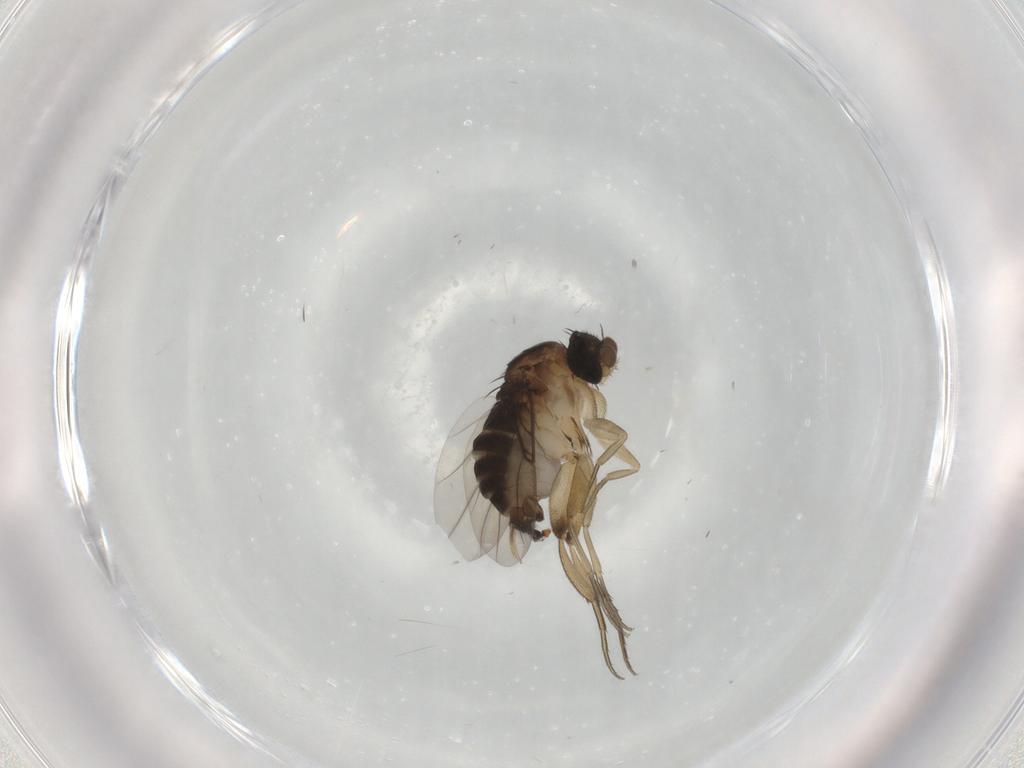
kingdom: Animalia
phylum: Arthropoda
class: Insecta
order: Diptera
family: Phoridae
